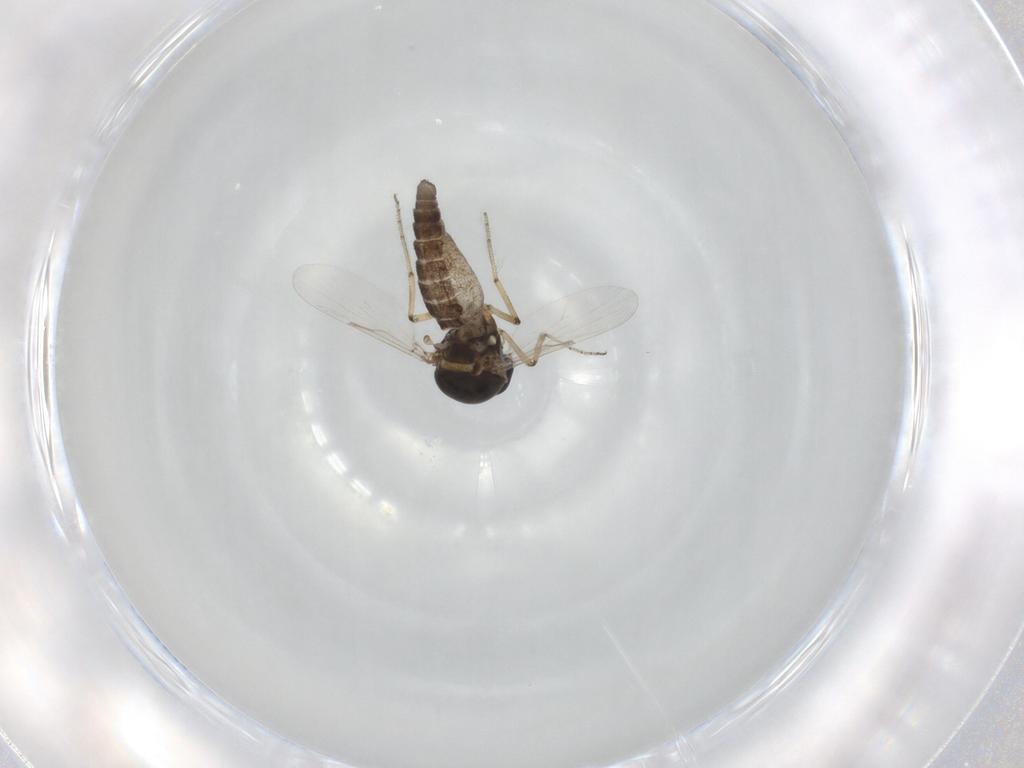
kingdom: Animalia
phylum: Arthropoda
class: Insecta
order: Diptera
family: Ceratopogonidae
